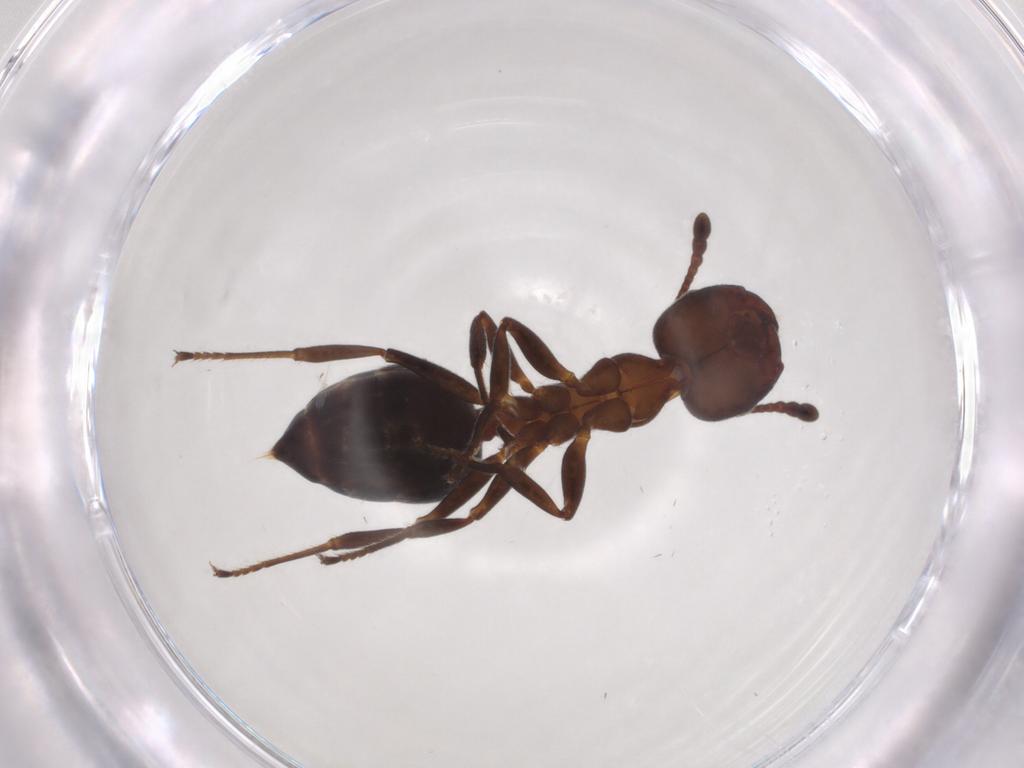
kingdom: Animalia
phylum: Arthropoda
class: Insecta
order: Hymenoptera
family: Formicidae
